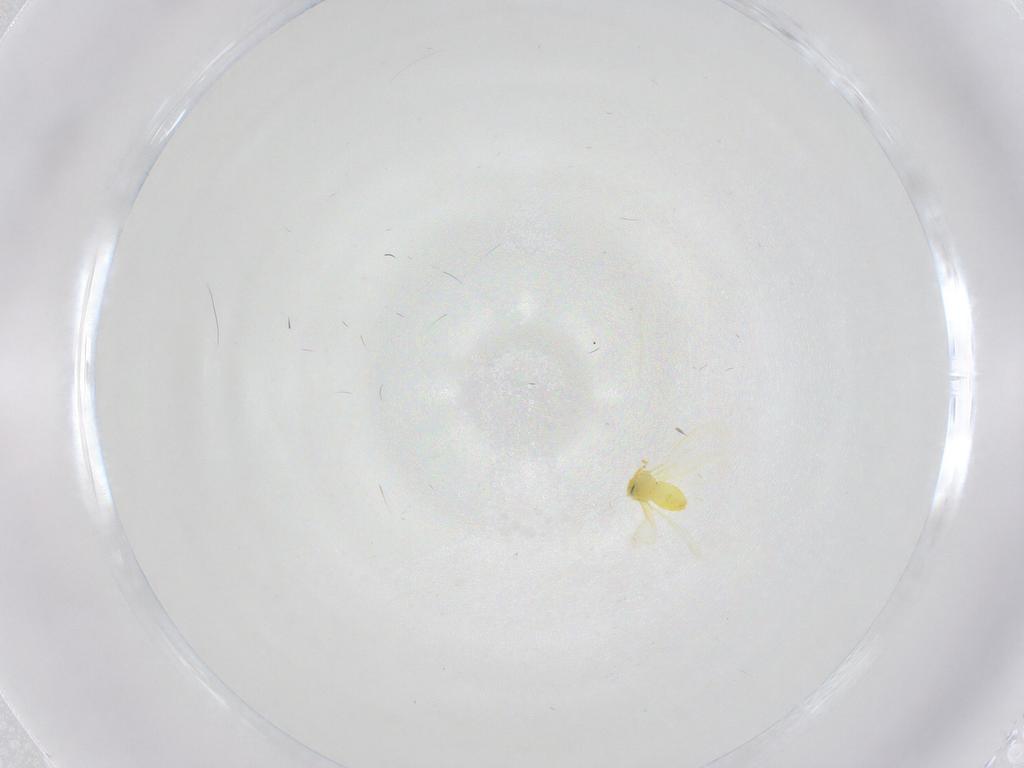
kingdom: Animalia
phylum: Arthropoda
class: Insecta
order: Hemiptera
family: Aleyrodidae
